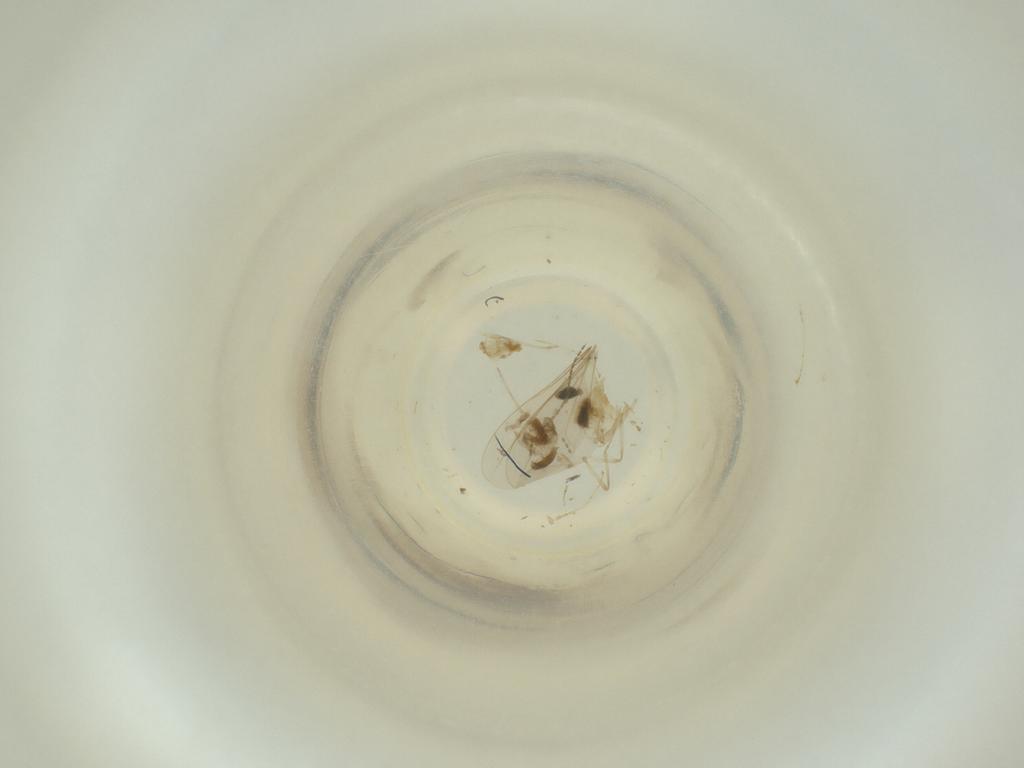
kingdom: Animalia
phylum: Arthropoda
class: Insecta
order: Diptera
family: Cecidomyiidae
